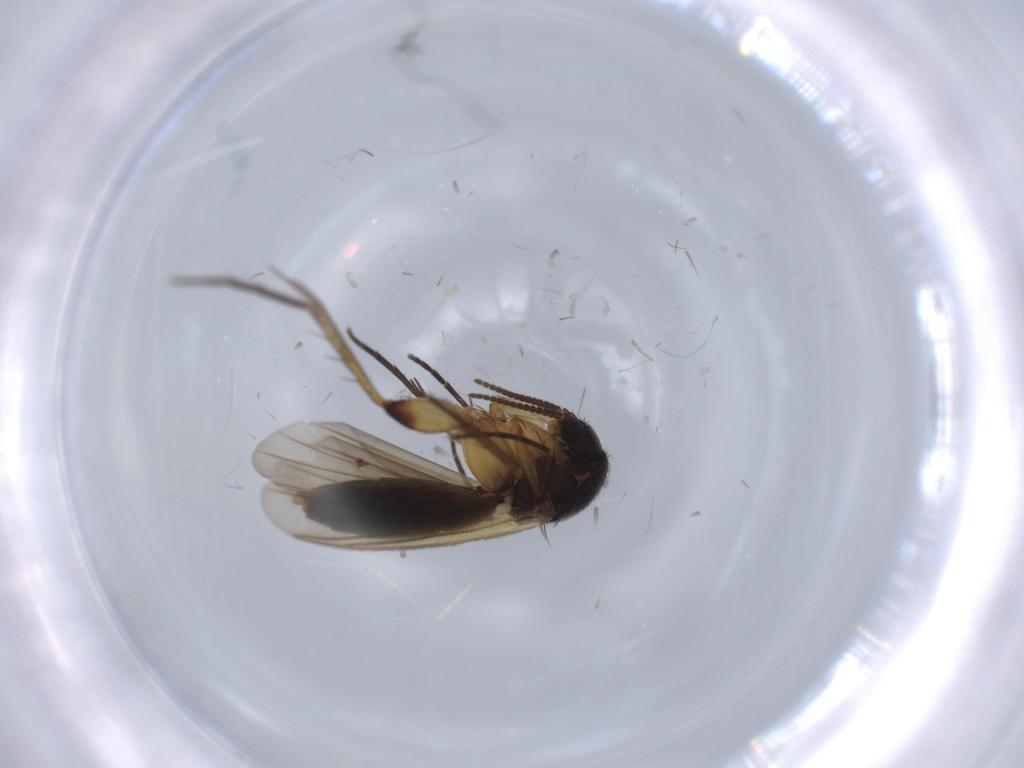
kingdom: Animalia
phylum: Arthropoda
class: Insecta
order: Diptera
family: Mycetophilidae
